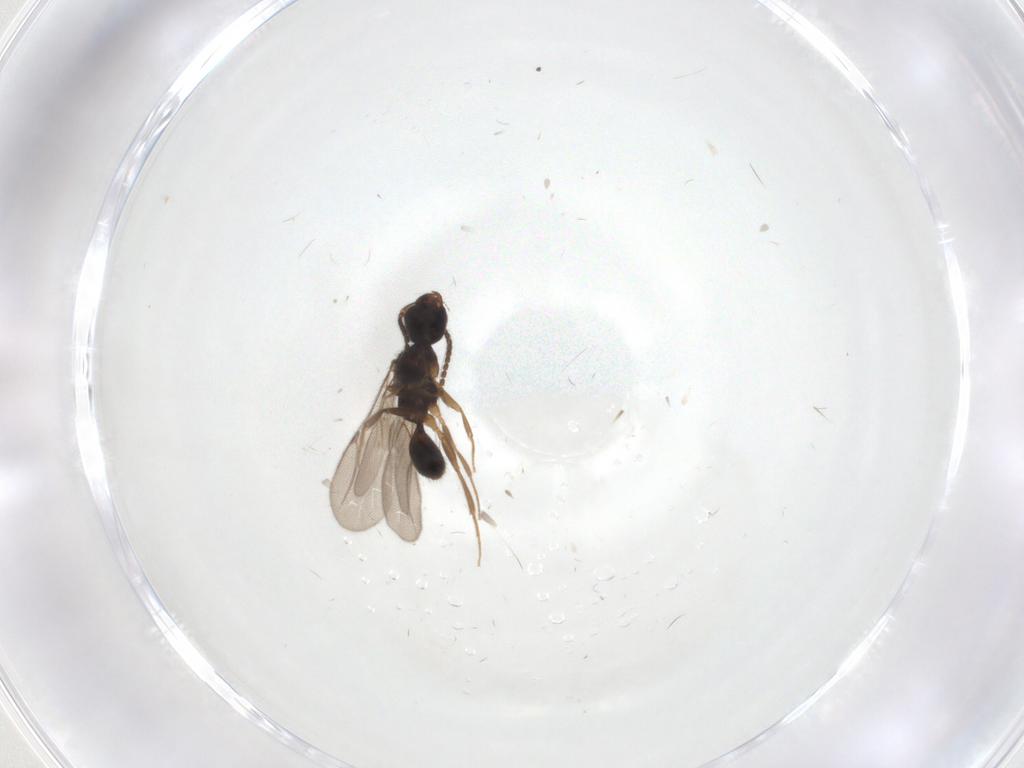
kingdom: Animalia
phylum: Arthropoda
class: Insecta
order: Hymenoptera
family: Bethylidae
